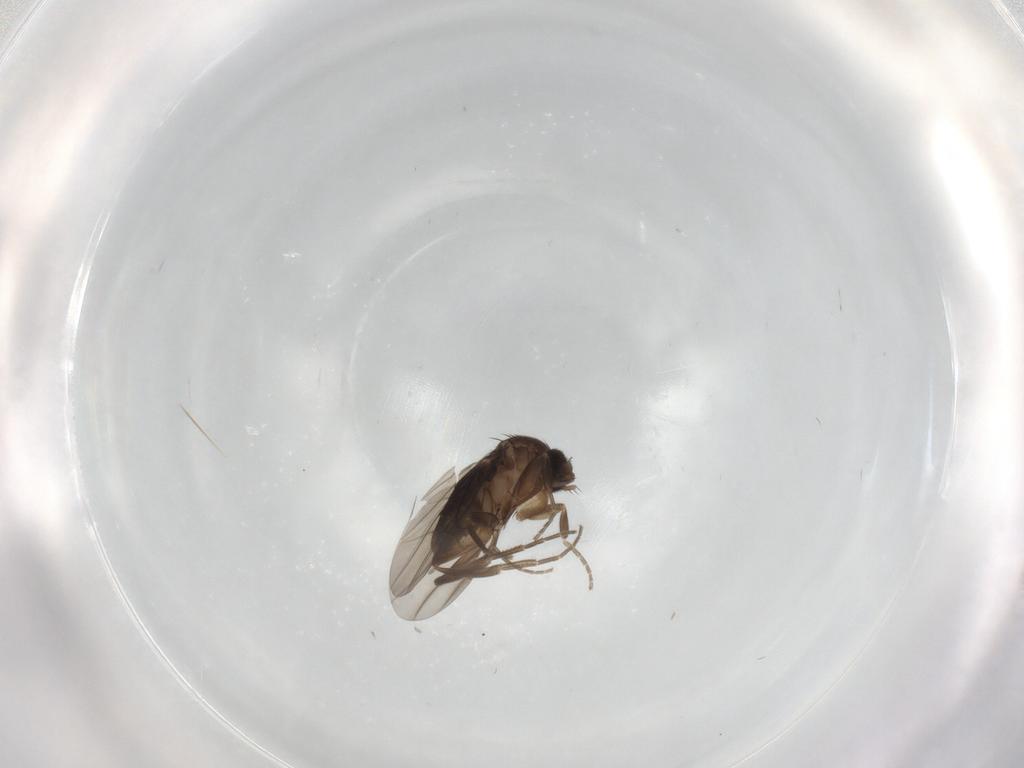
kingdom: Animalia
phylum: Arthropoda
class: Insecta
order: Diptera
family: Phoridae
